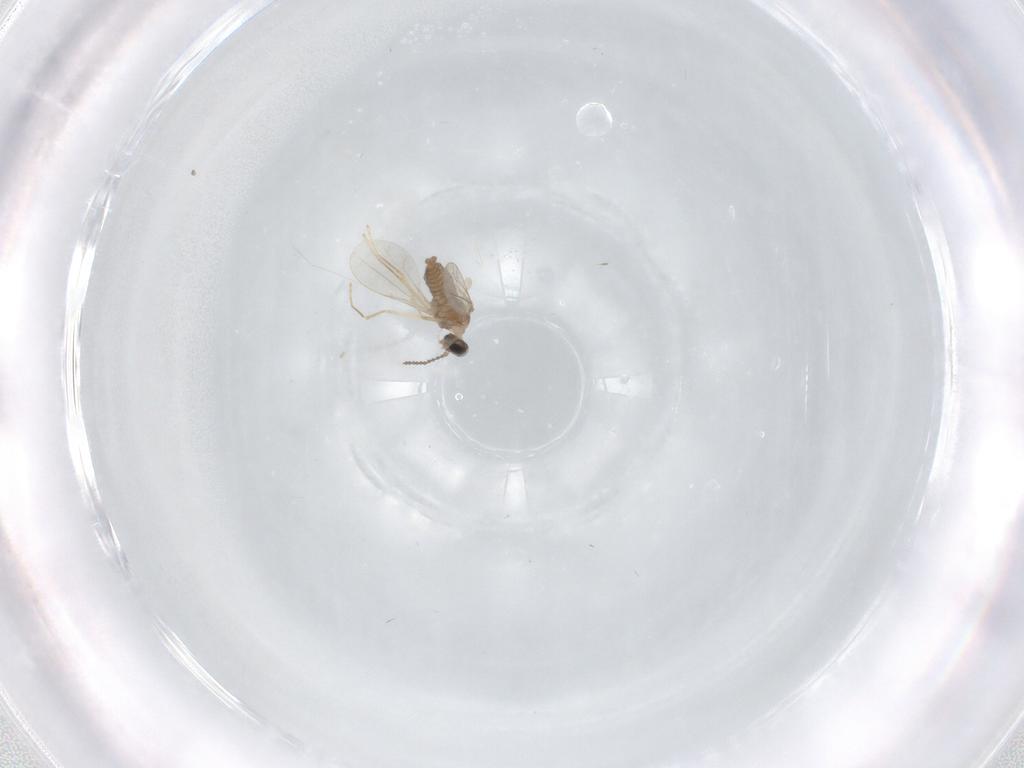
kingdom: Animalia
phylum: Arthropoda
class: Insecta
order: Diptera
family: Cecidomyiidae
